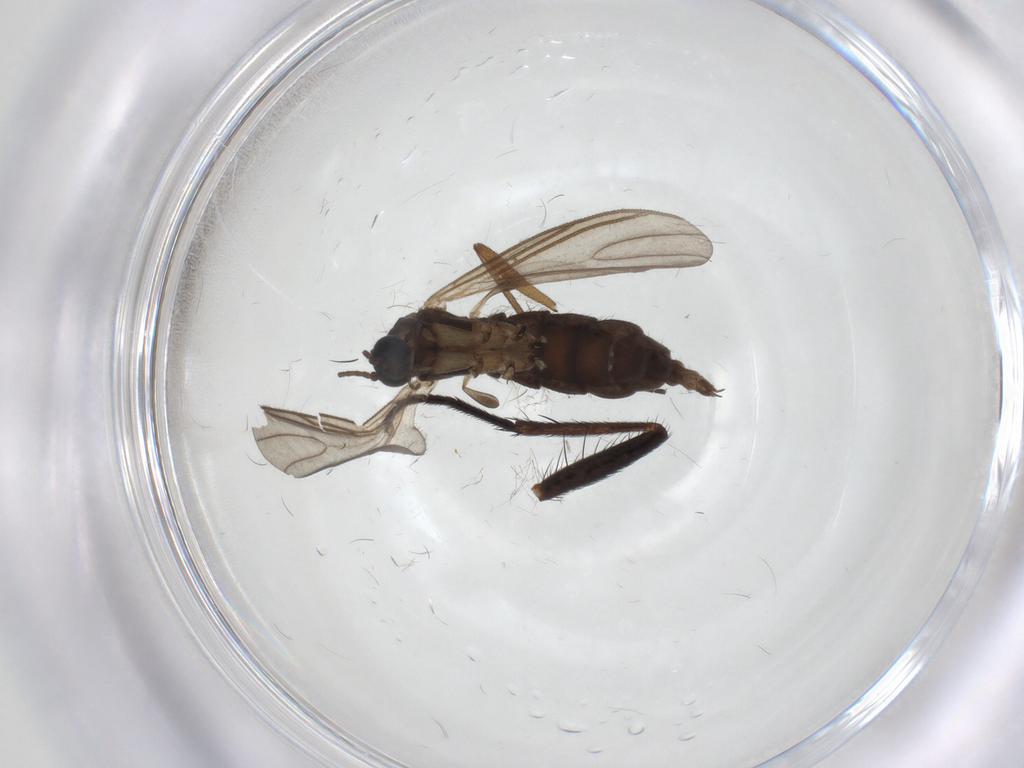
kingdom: Animalia
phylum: Arthropoda
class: Insecta
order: Diptera
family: Sciaridae
